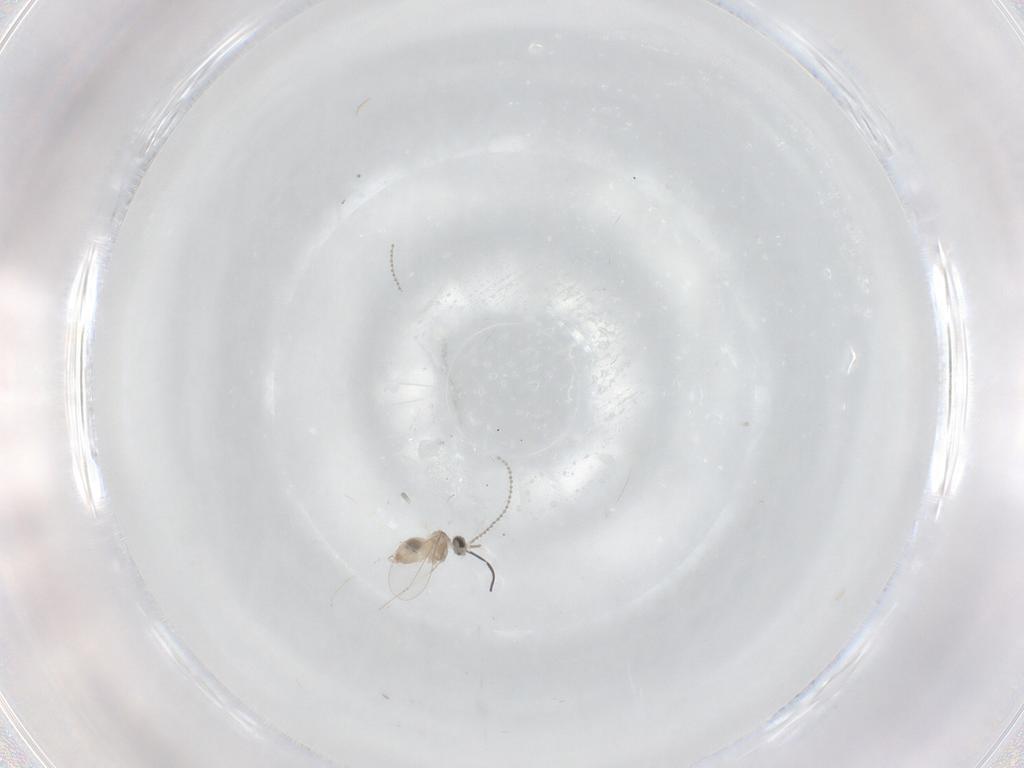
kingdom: Animalia
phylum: Arthropoda
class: Insecta
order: Diptera
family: Cecidomyiidae
